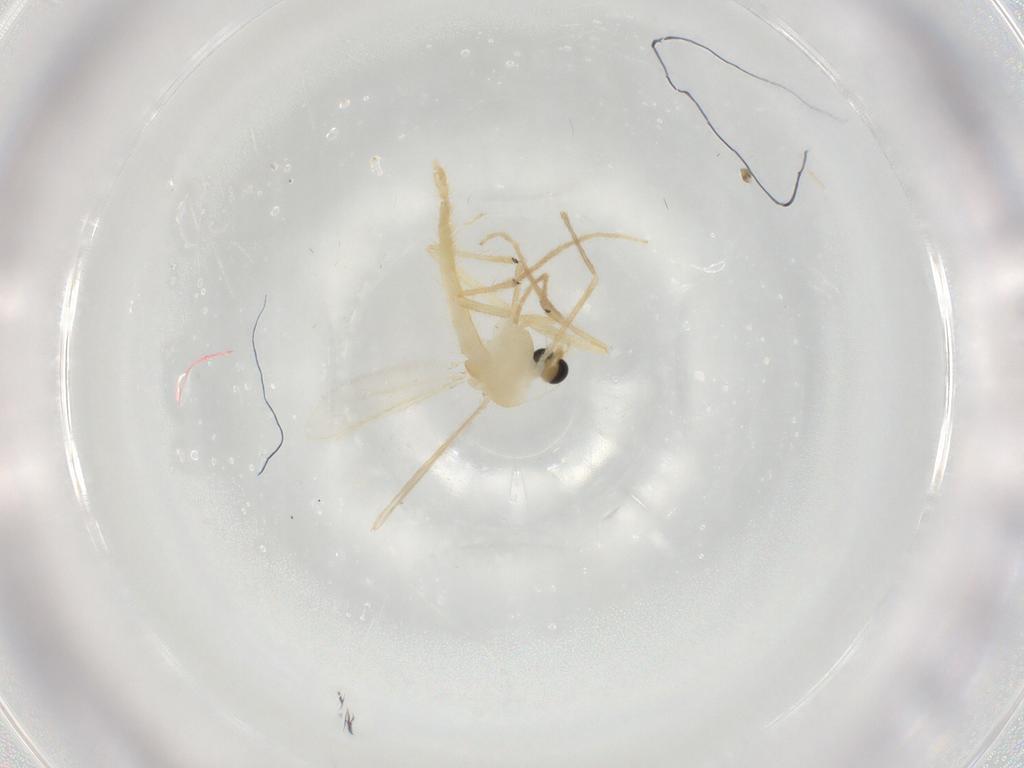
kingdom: Animalia
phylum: Arthropoda
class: Insecta
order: Diptera
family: Chironomidae
